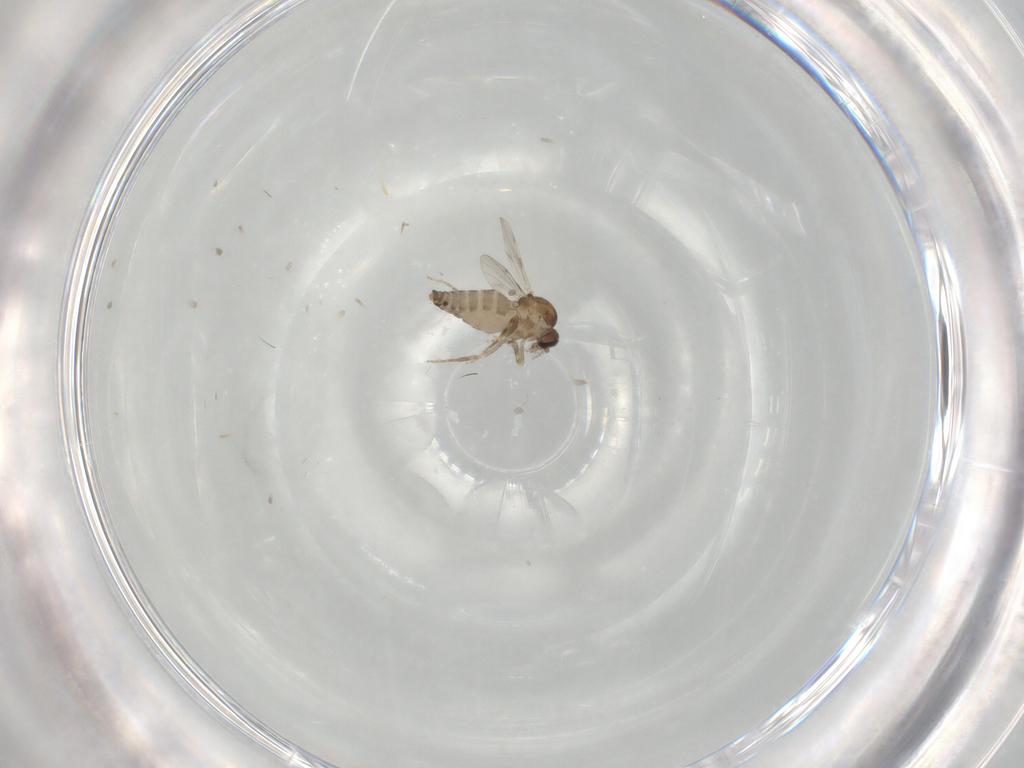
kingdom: Animalia
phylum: Arthropoda
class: Insecta
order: Diptera
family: Ceratopogonidae
